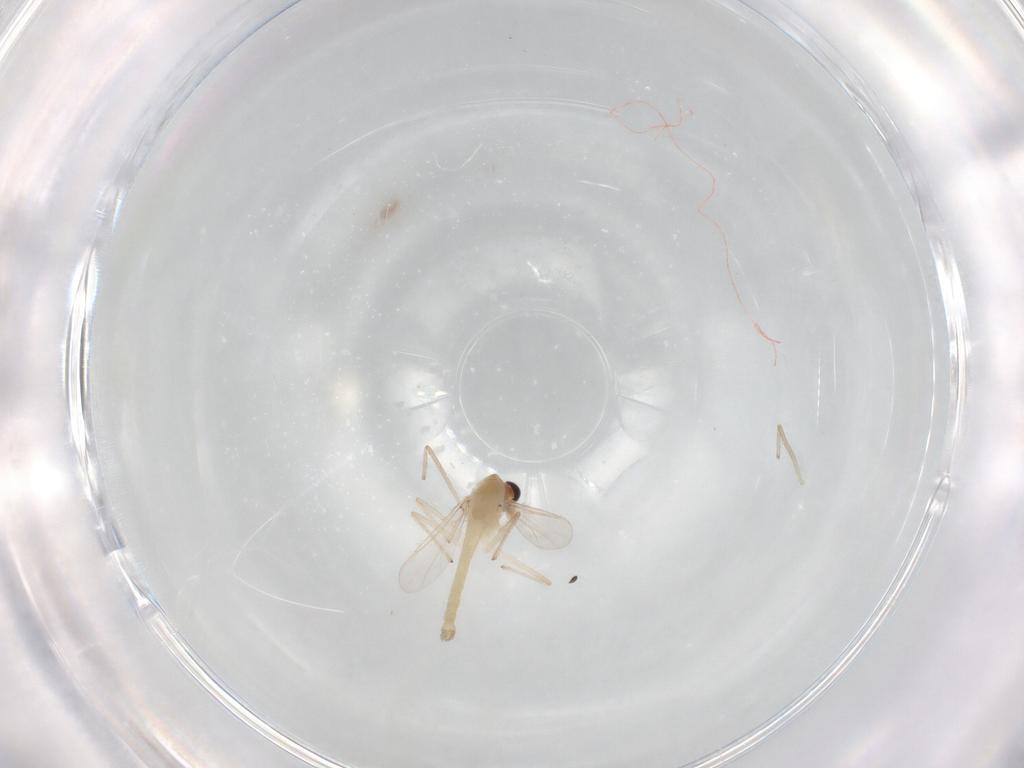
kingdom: Animalia
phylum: Arthropoda
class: Insecta
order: Diptera
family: Chironomidae
